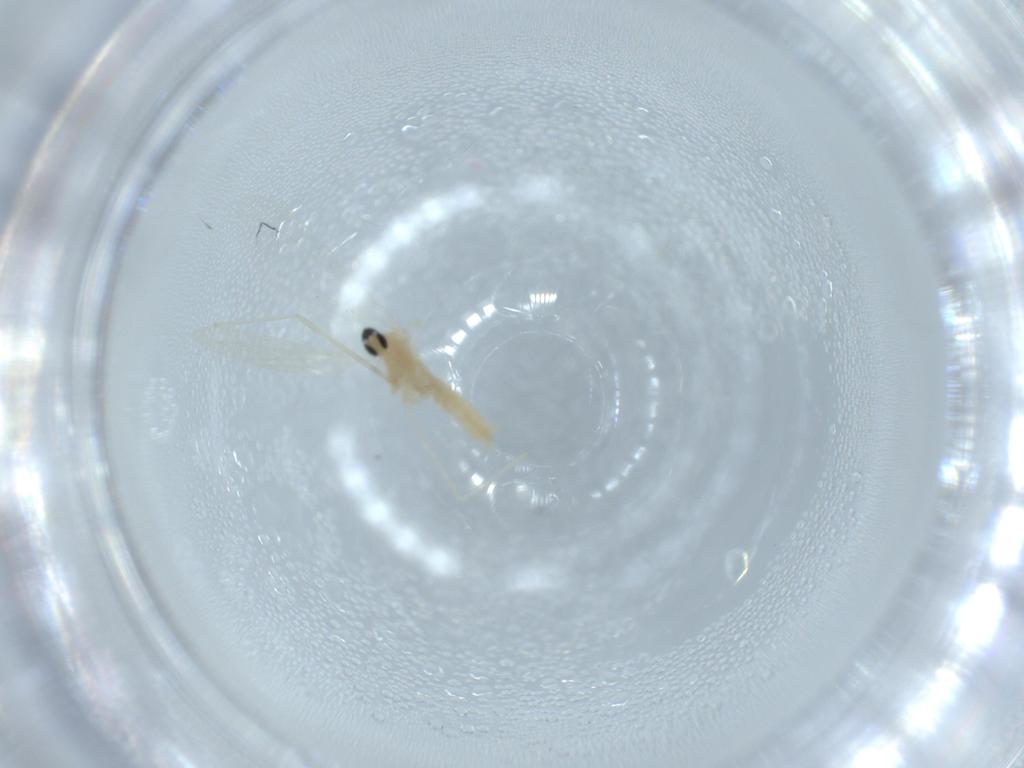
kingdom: Animalia
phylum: Arthropoda
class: Insecta
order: Diptera
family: Cecidomyiidae
